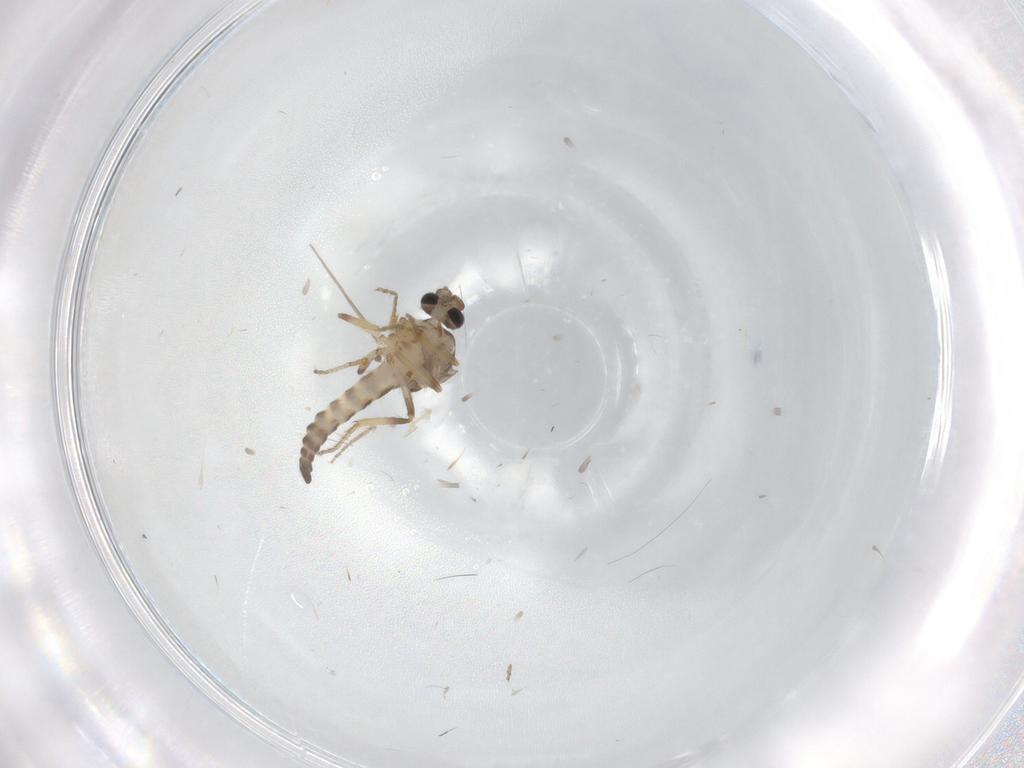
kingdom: Animalia
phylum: Arthropoda
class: Insecta
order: Diptera
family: Ceratopogonidae
